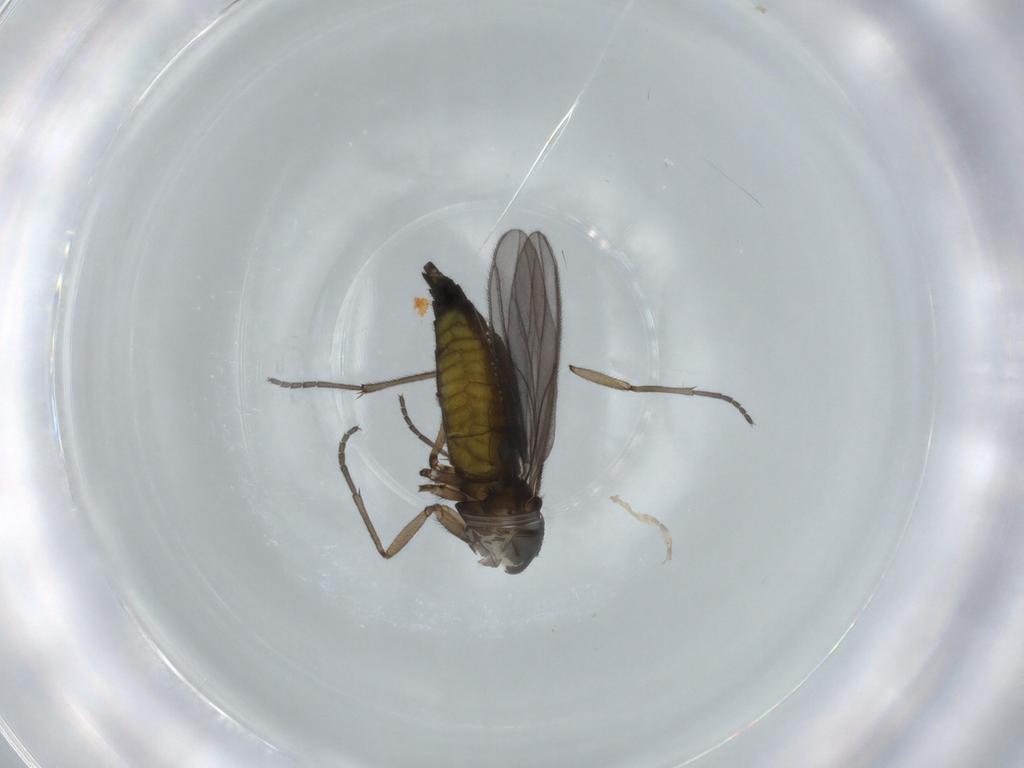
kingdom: Animalia
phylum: Arthropoda
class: Insecta
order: Diptera
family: Sciaridae
